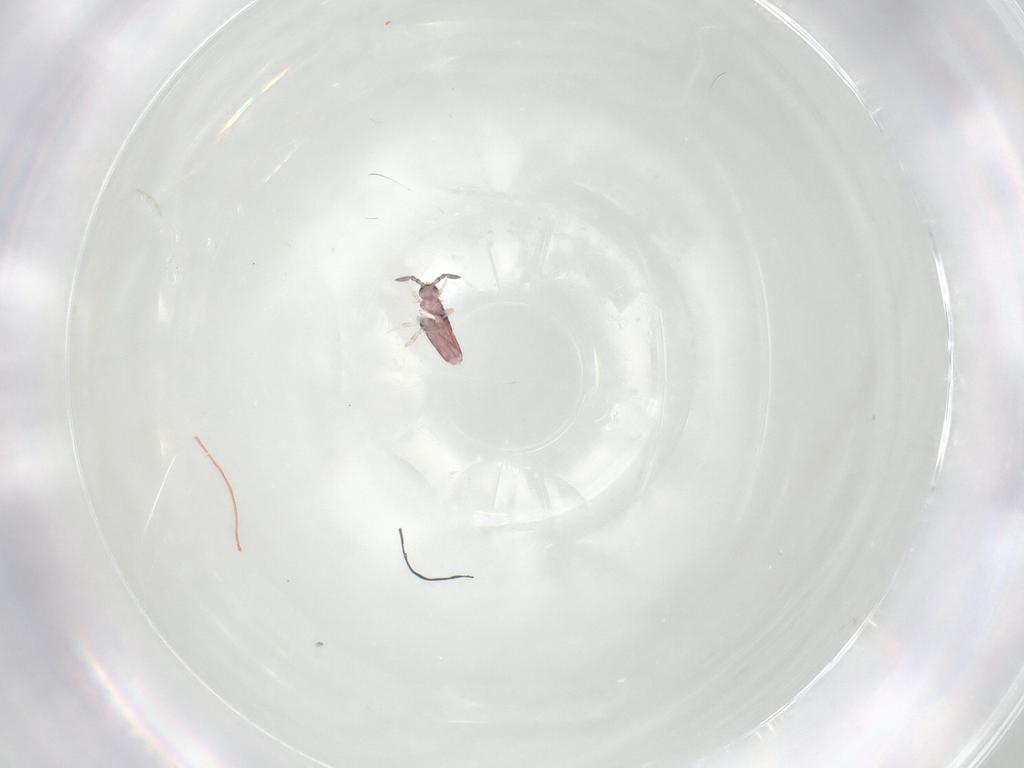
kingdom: Animalia
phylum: Arthropoda
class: Collembola
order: Entomobryomorpha
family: Entomobryidae
